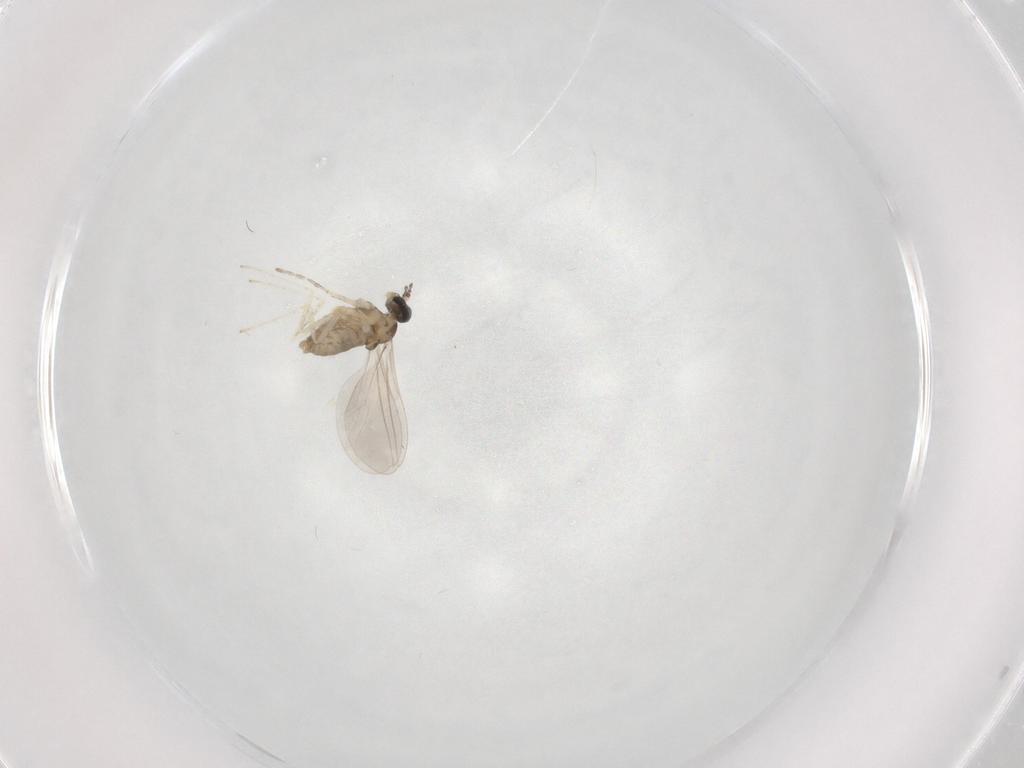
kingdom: Animalia
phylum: Arthropoda
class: Insecta
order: Diptera
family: Cecidomyiidae
